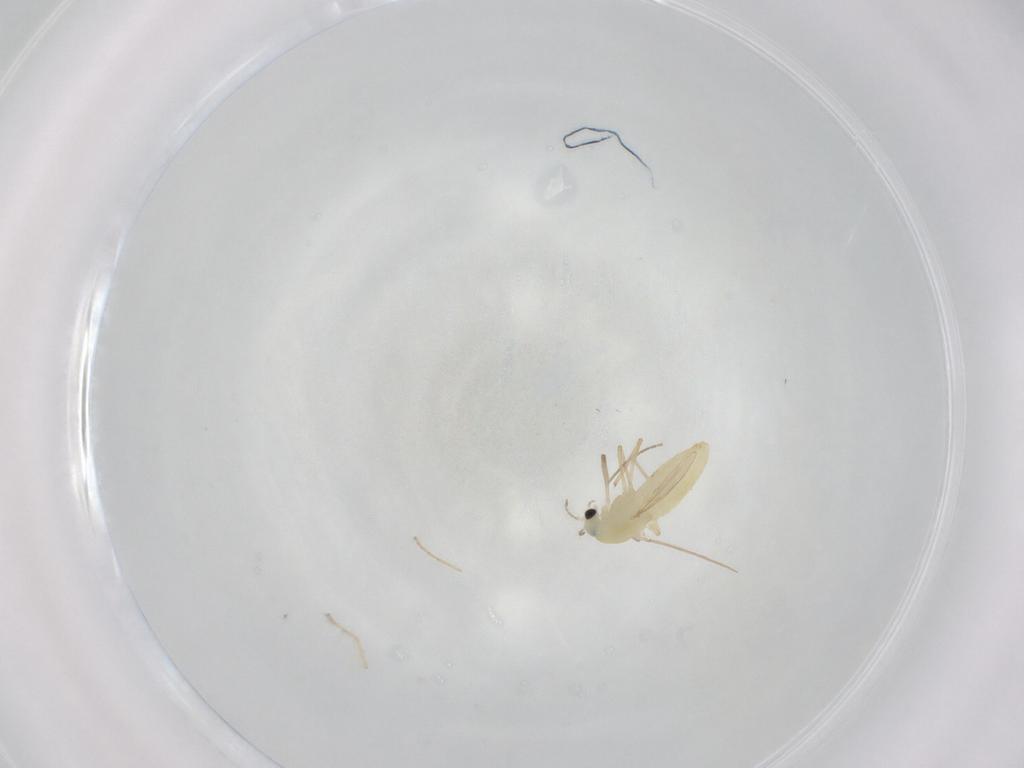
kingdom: Animalia
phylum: Arthropoda
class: Insecta
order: Diptera
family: Chironomidae
